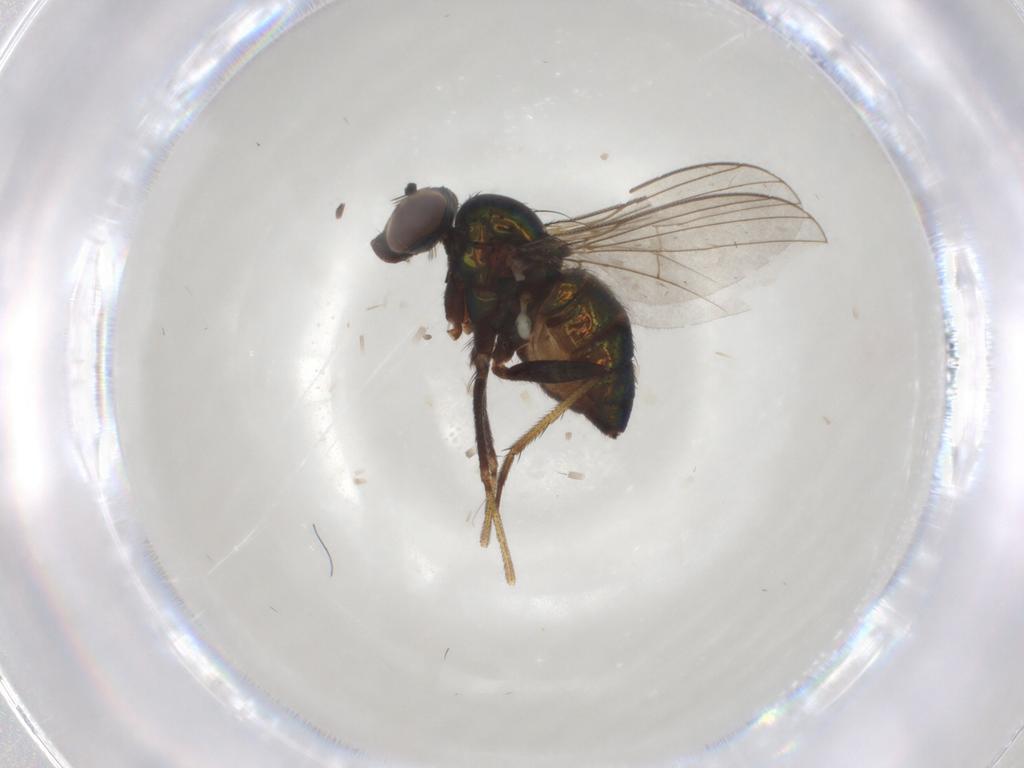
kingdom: Animalia
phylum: Arthropoda
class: Insecta
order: Diptera
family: Dolichopodidae
